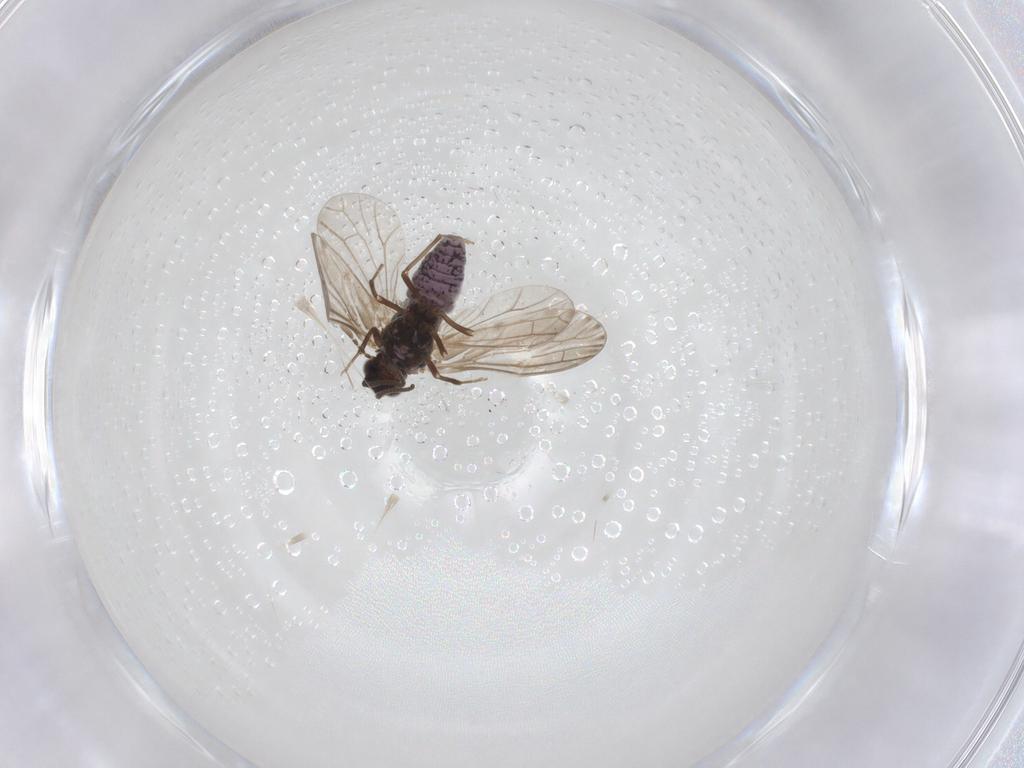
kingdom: Animalia
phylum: Arthropoda
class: Insecta
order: Neuroptera
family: Coniopterygidae
